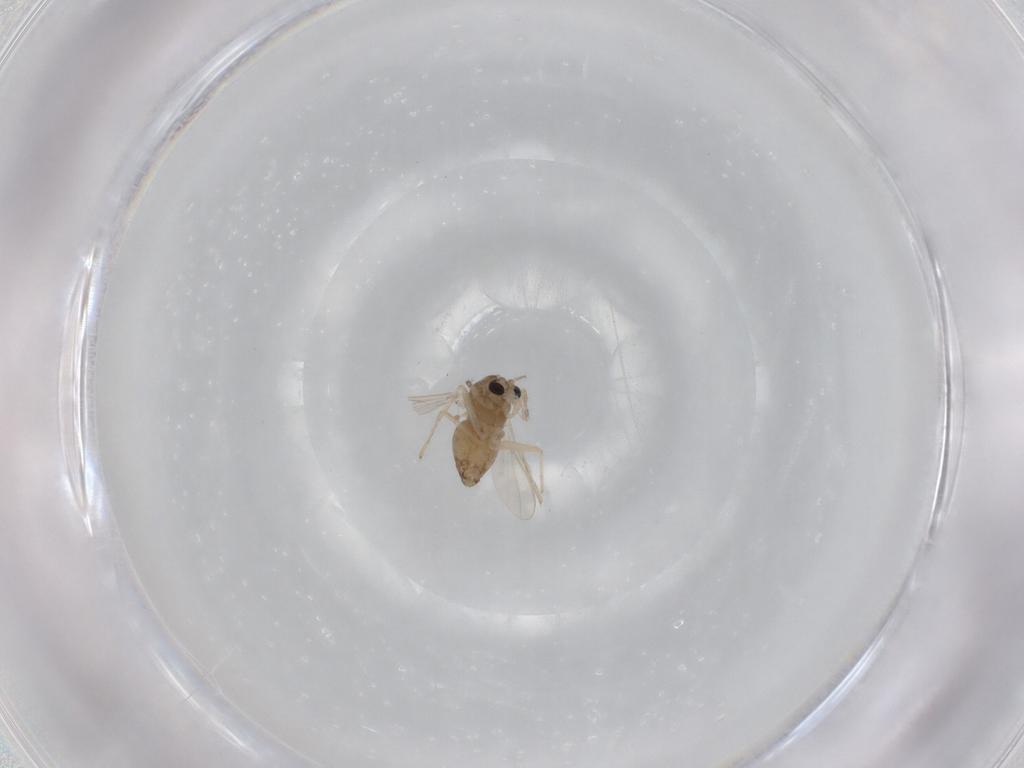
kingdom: Animalia
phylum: Arthropoda
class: Insecta
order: Diptera
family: Chironomidae
